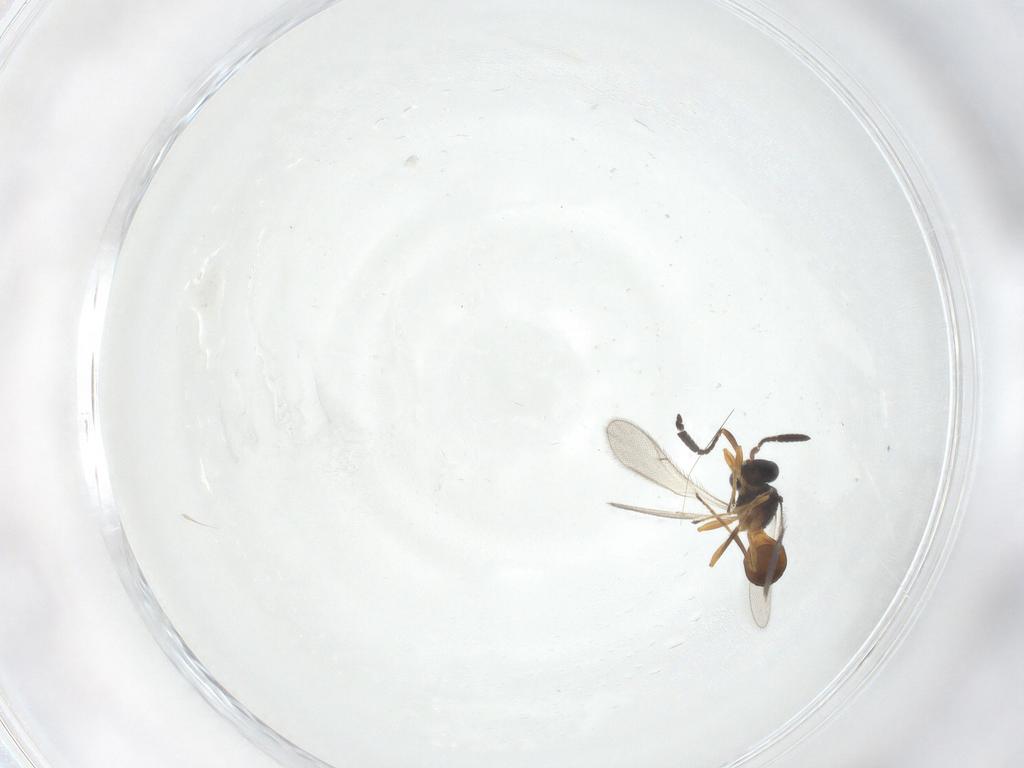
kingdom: Animalia
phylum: Arthropoda
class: Insecta
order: Hymenoptera
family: Scelionidae
